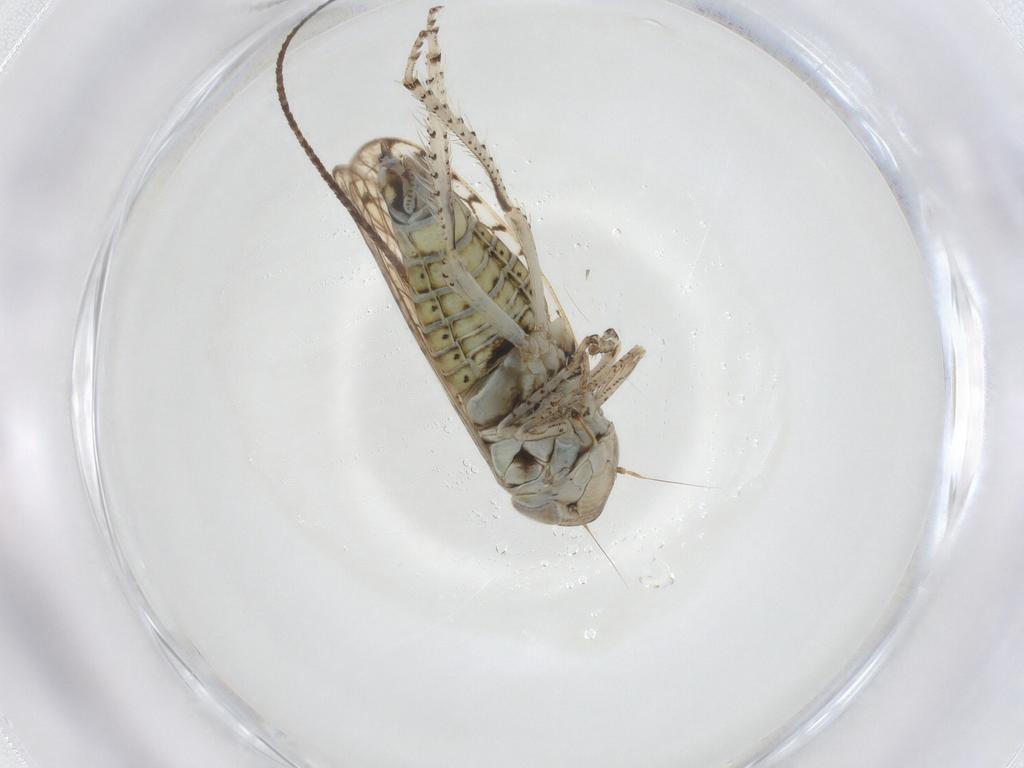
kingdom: Animalia
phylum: Arthropoda
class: Insecta
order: Hemiptera
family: Cicadellidae
